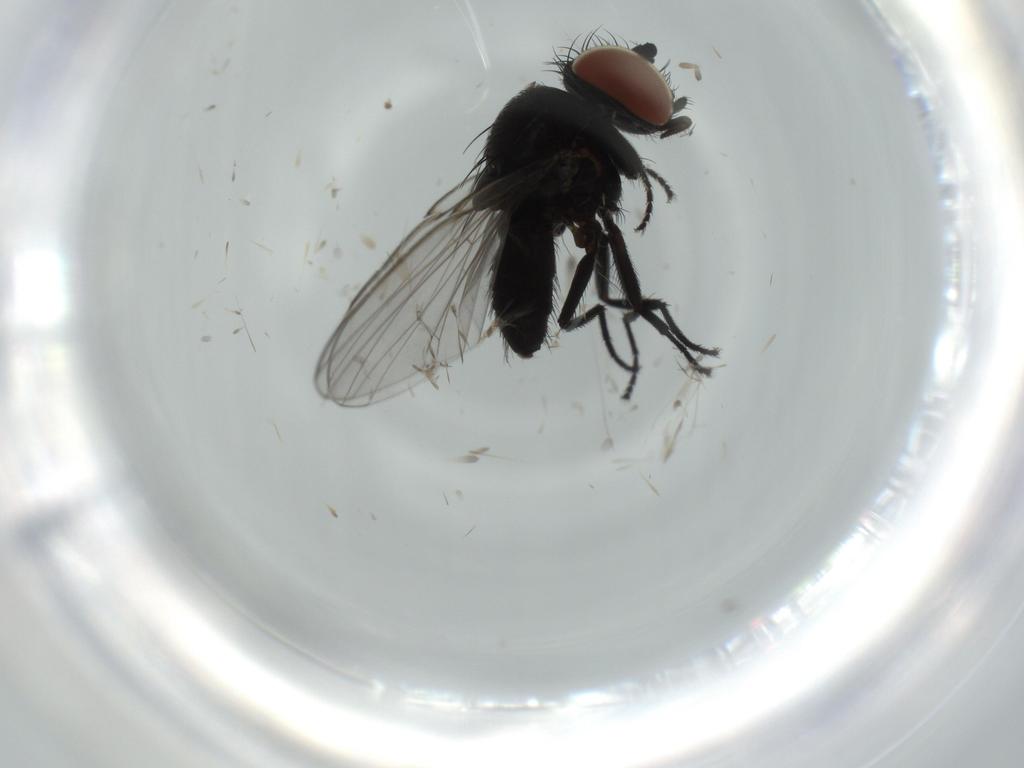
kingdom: Animalia
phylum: Arthropoda
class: Insecta
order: Diptera
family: Milichiidae
